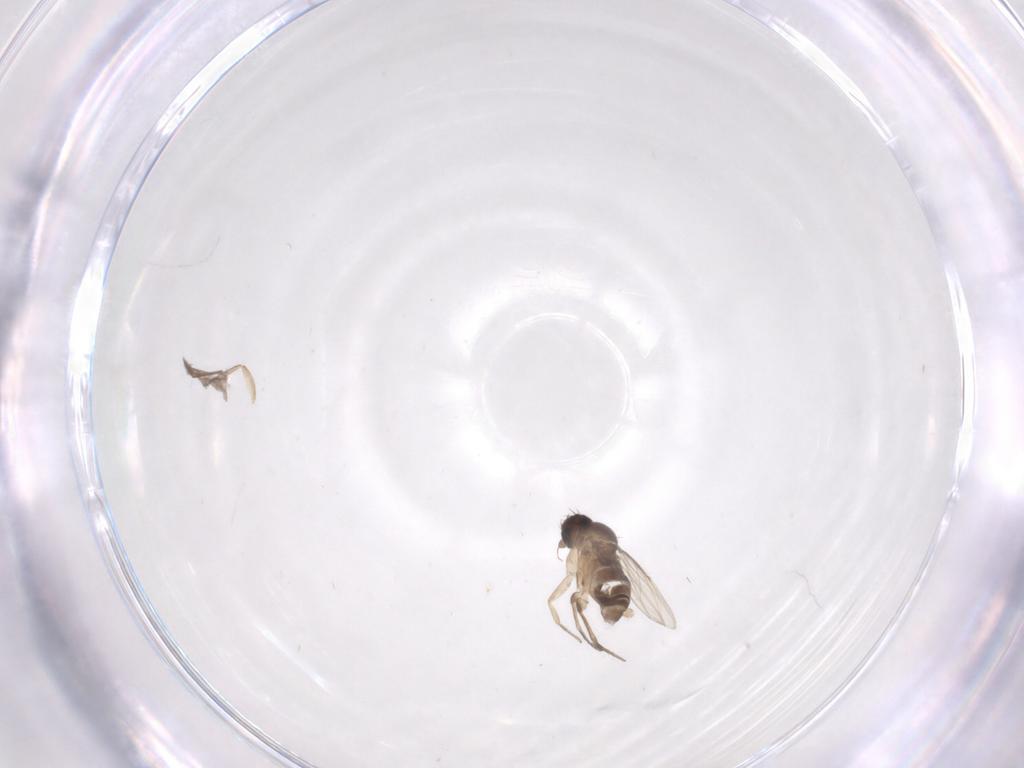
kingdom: Animalia
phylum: Arthropoda
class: Insecta
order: Diptera
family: Phoridae
